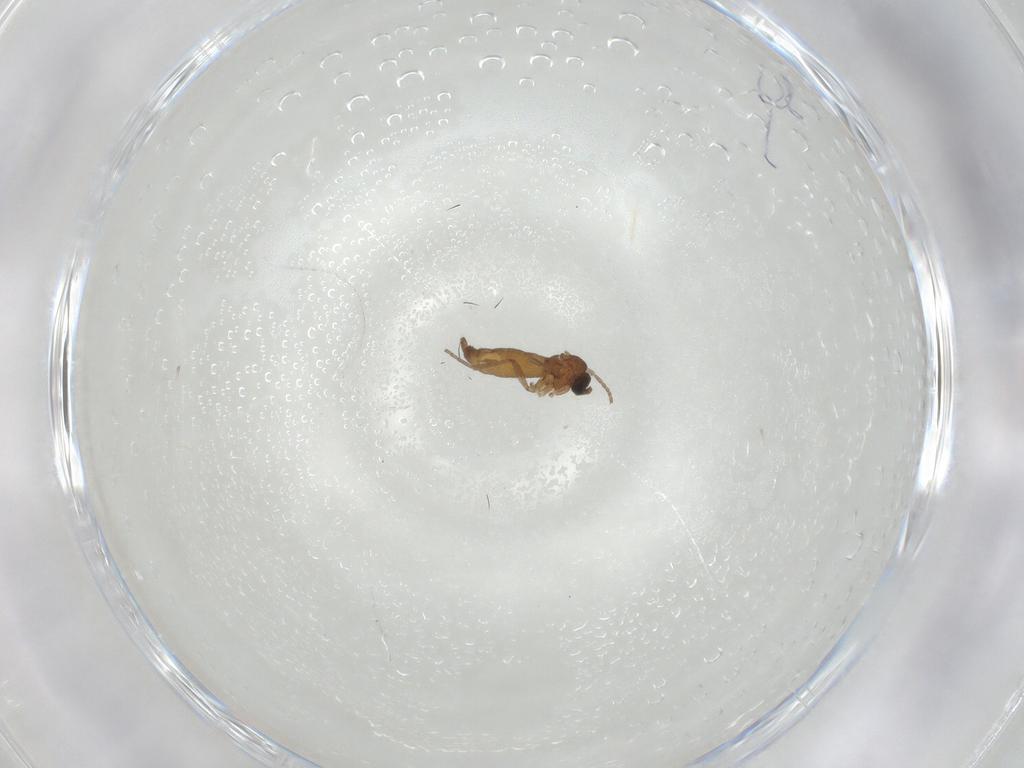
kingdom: Animalia
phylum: Arthropoda
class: Insecta
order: Diptera
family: Sciaridae
